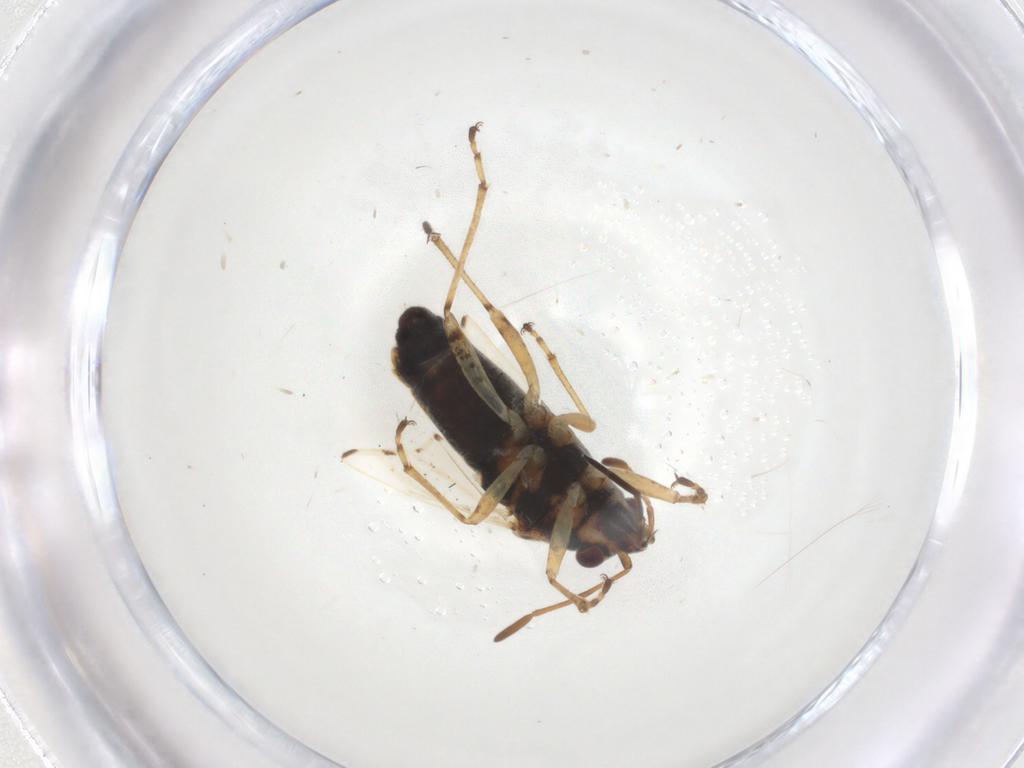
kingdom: Animalia
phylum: Arthropoda
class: Insecta
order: Hemiptera
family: Lygaeidae
